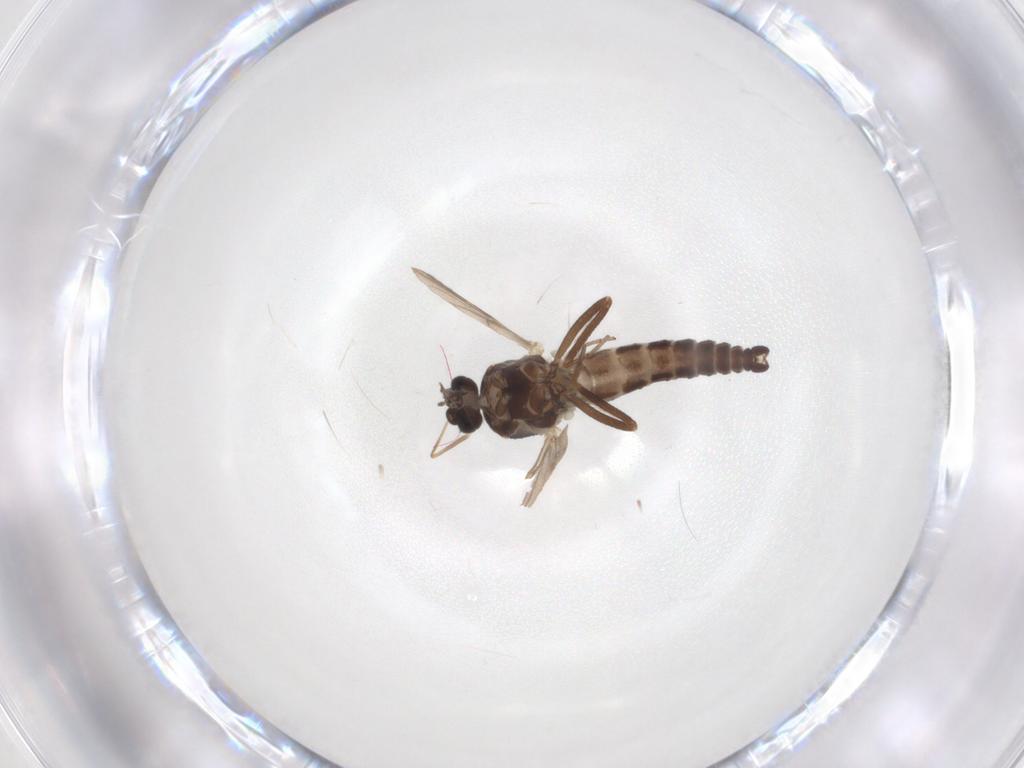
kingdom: Animalia
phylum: Arthropoda
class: Insecta
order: Diptera
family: Ceratopogonidae
